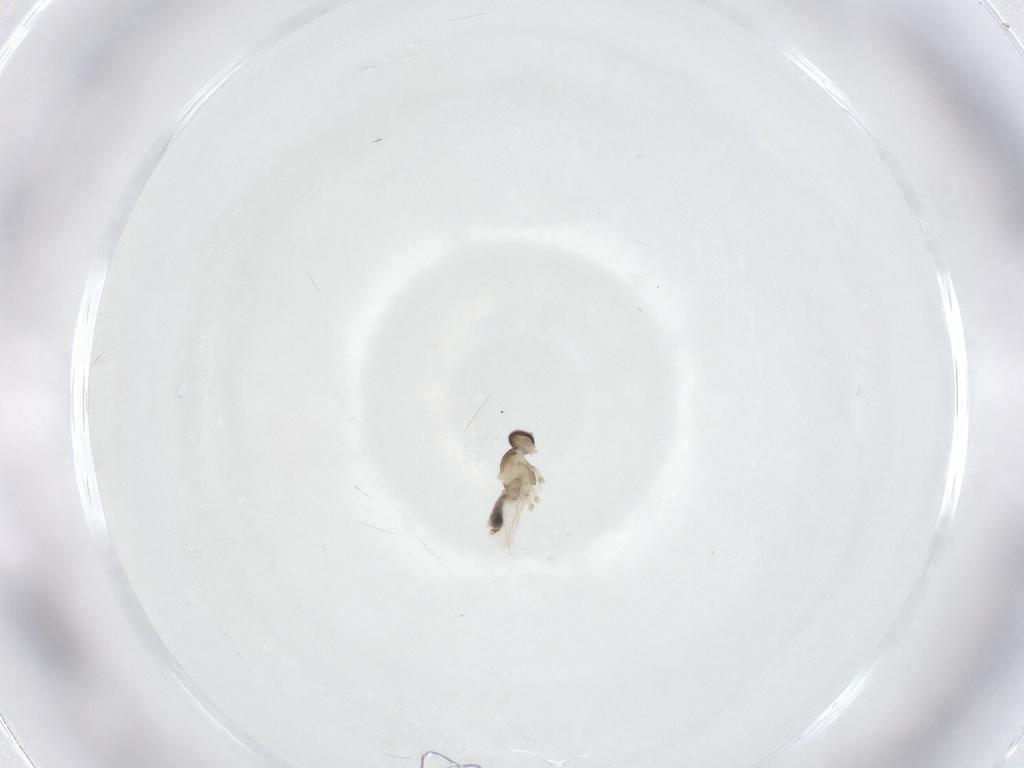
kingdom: Animalia
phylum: Arthropoda
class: Insecta
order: Diptera
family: Cecidomyiidae
